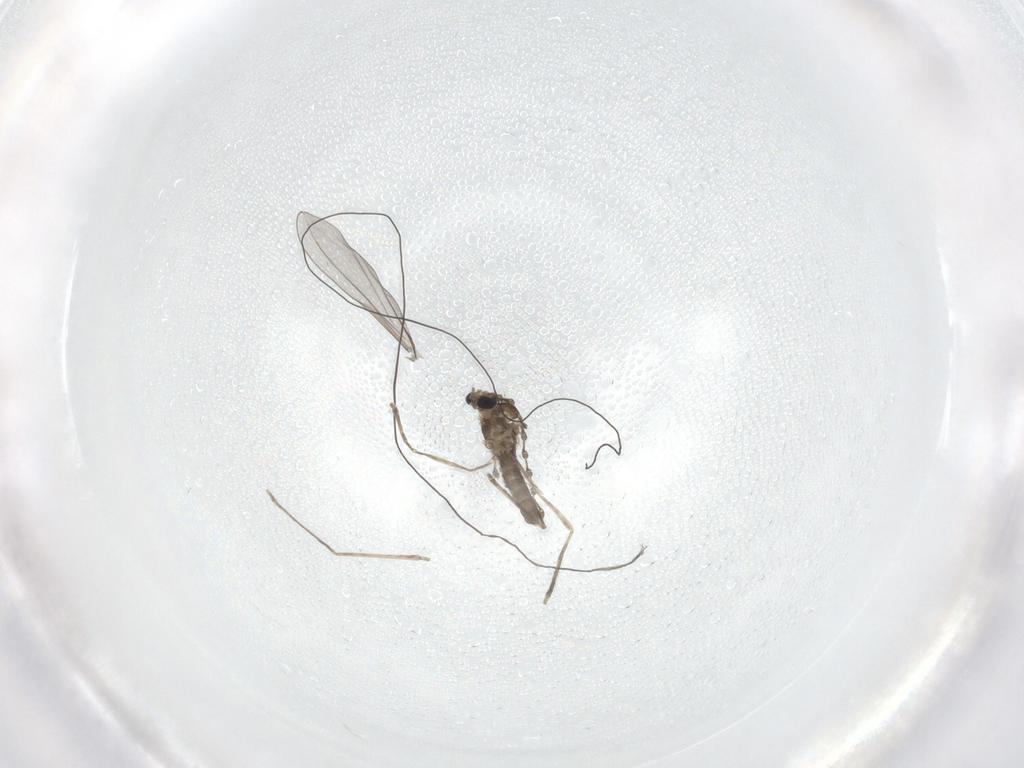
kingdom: Animalia
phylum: Arthropoda
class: Insecta
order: Diptera
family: Cecidomyiidae
